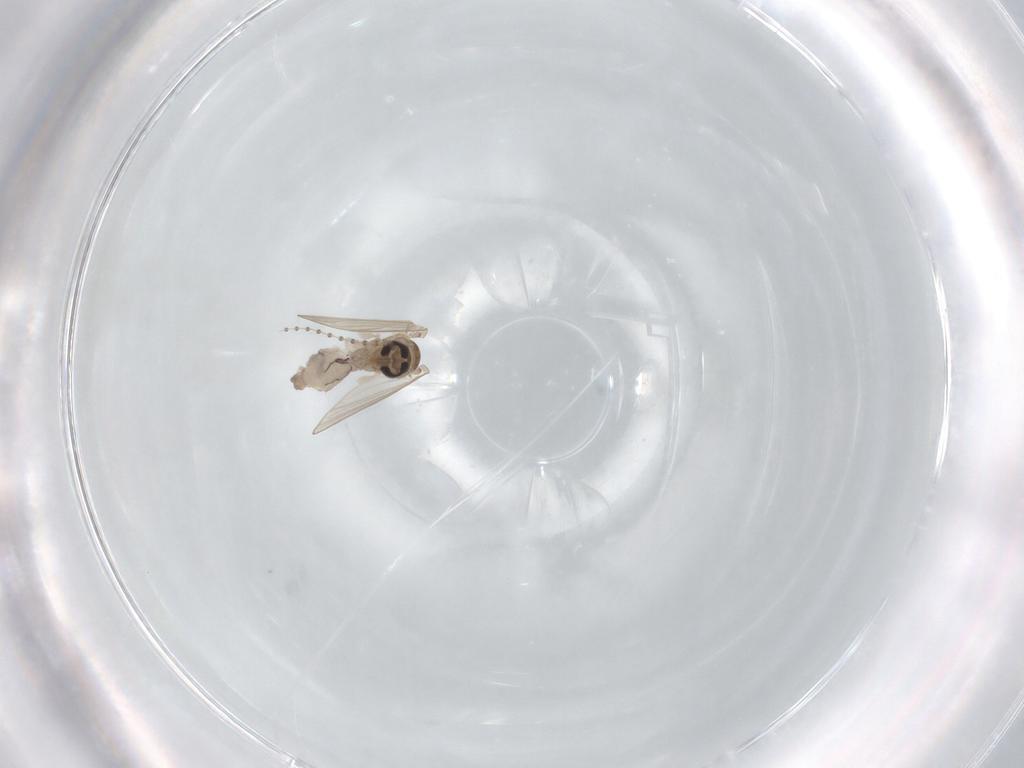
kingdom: Animalia
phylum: Arthropoda
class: Insecta
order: Diptera
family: Psychodidae
